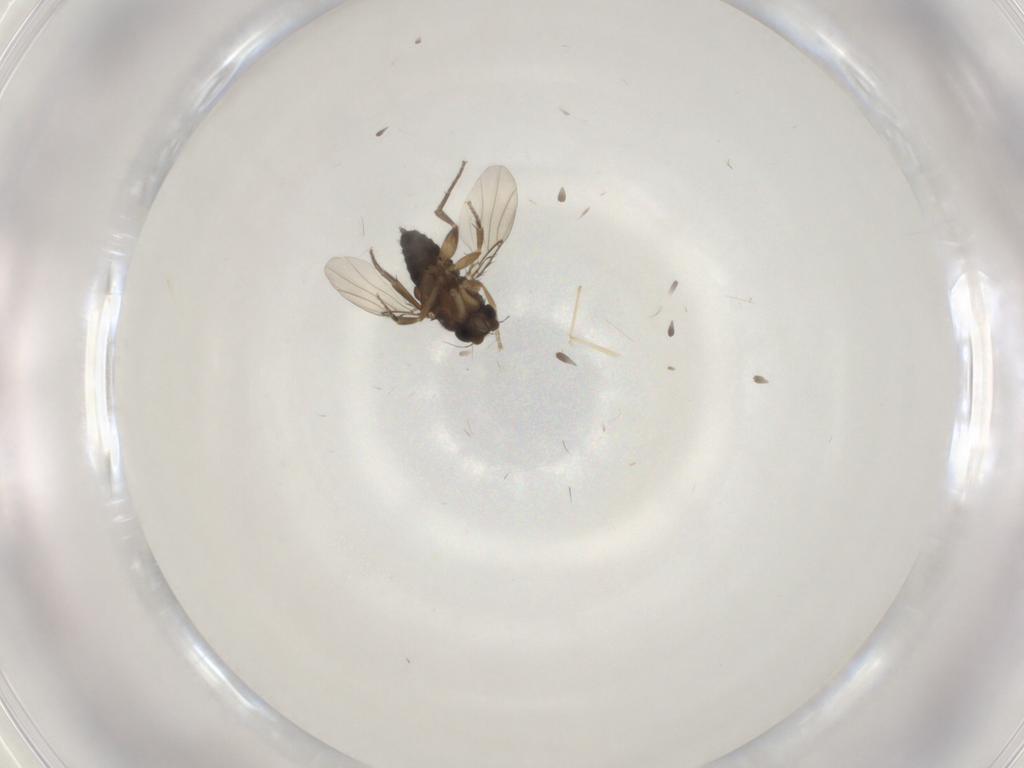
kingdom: Animalia
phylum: Arthropoda
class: Insecta
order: Diptera
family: Phoridae
